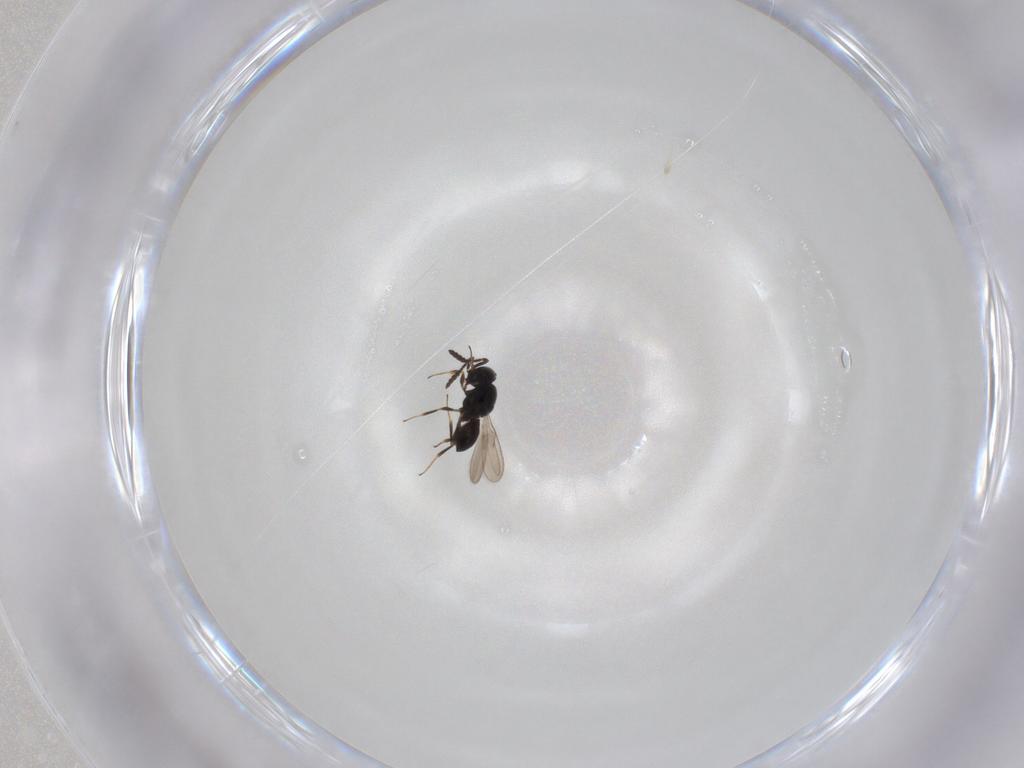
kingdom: Animalia
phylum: Arthropoda
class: Insecta
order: Hymenoptera
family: Scelionidae
